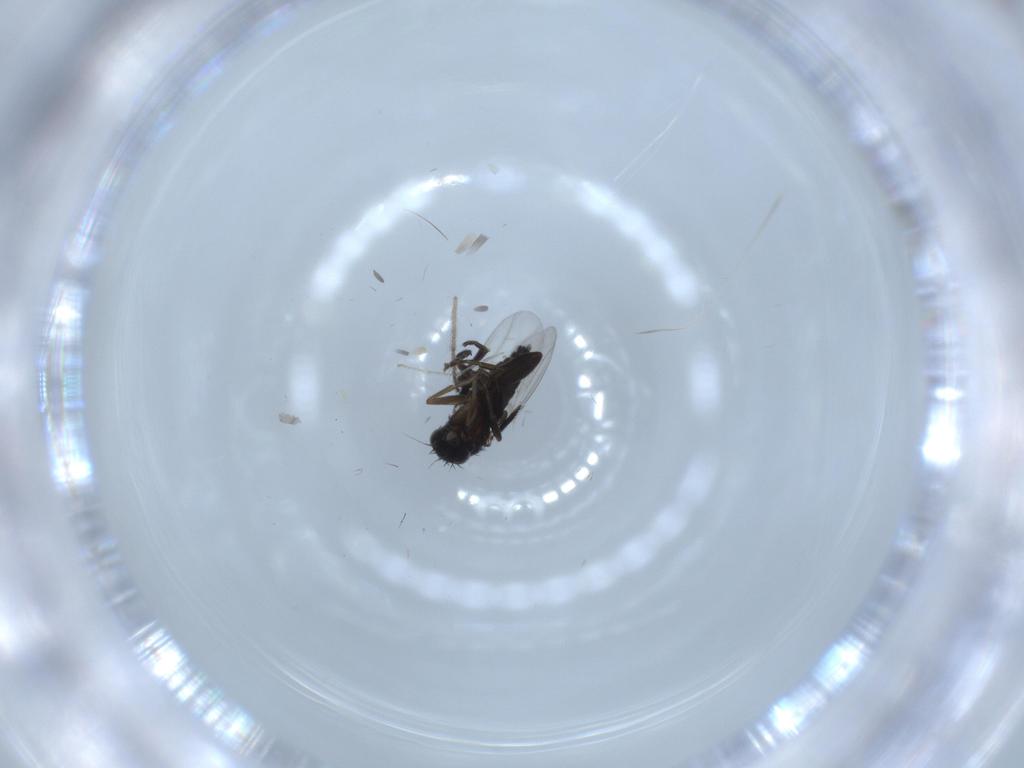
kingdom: Animalia
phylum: Arthropoda
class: Insecta
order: Diptera
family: Phoridae
